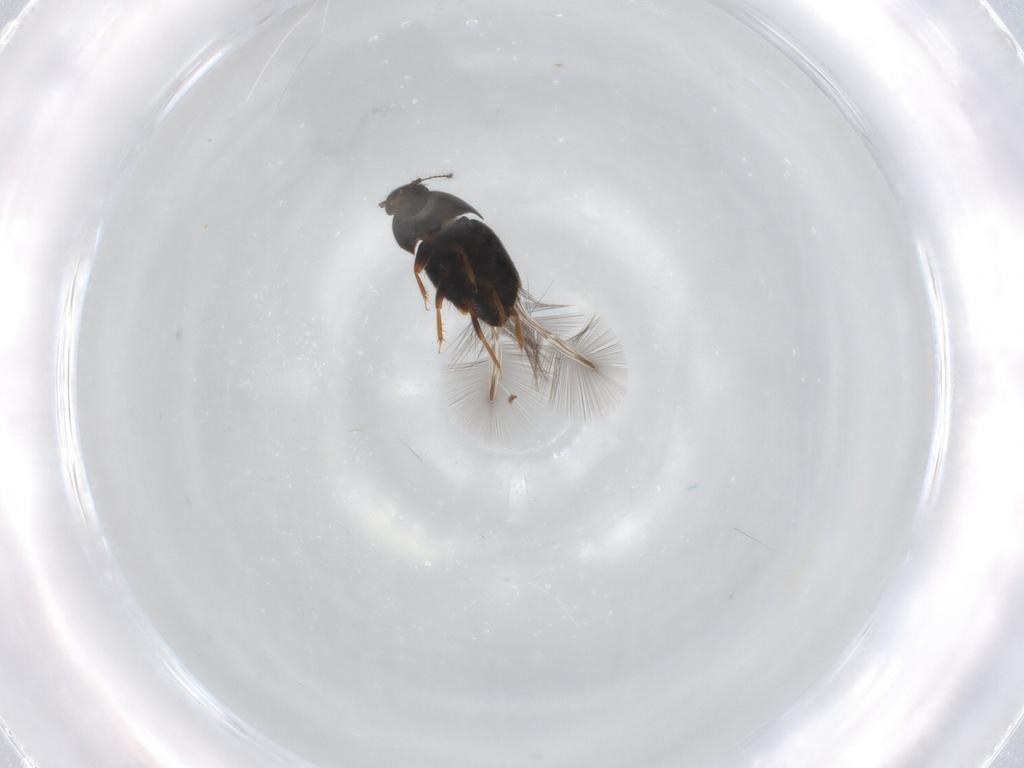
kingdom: Animalia
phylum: Arthropoda
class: Insecta
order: Coleoptera
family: Ptiliidae
